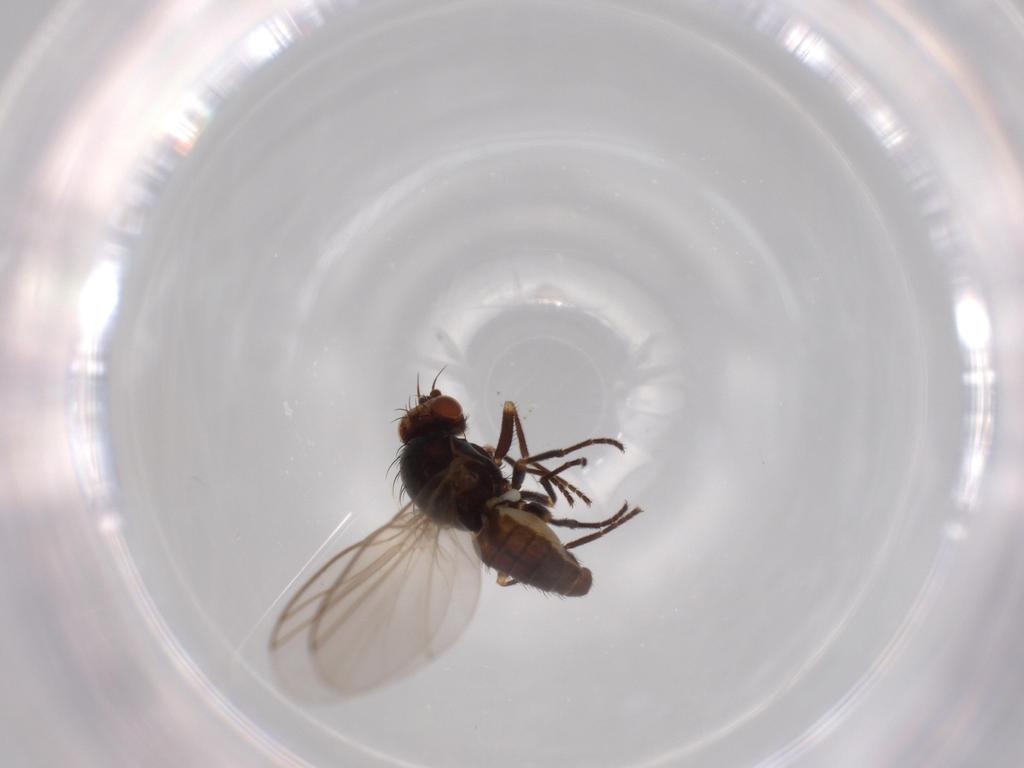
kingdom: Animalia
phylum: Arthropoda
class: Insecta
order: Diptera
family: Agromyzidae
